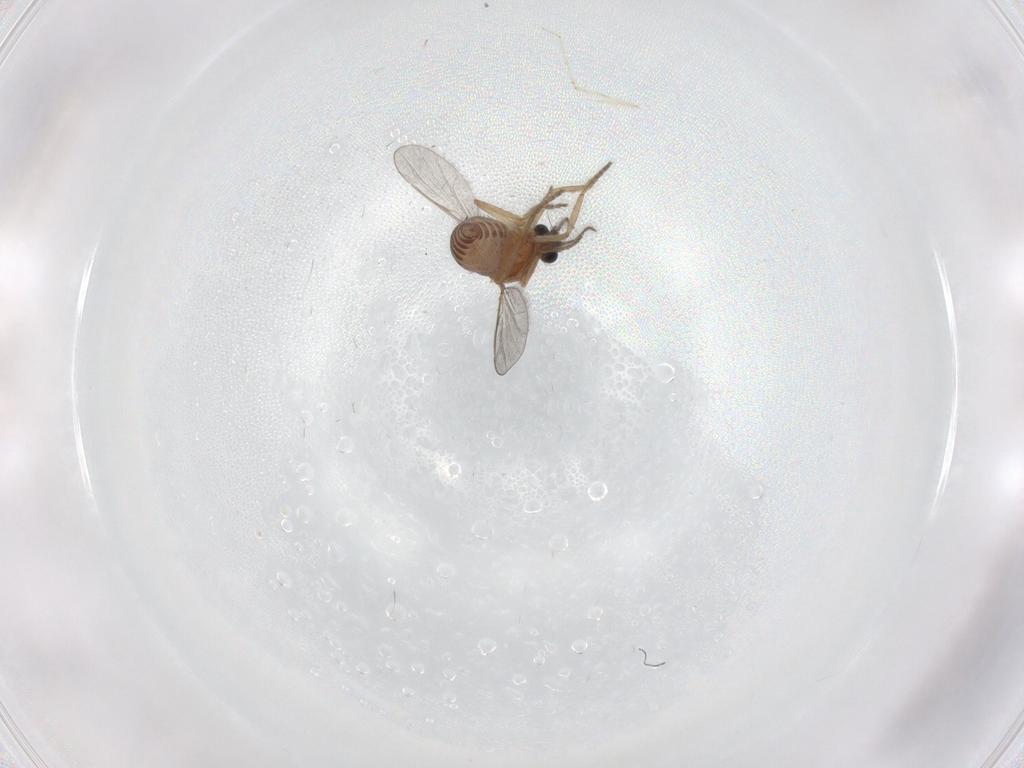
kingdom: Animalia
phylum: Arthropoda
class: Insecta
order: Diptera
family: Ceratopogonidae
